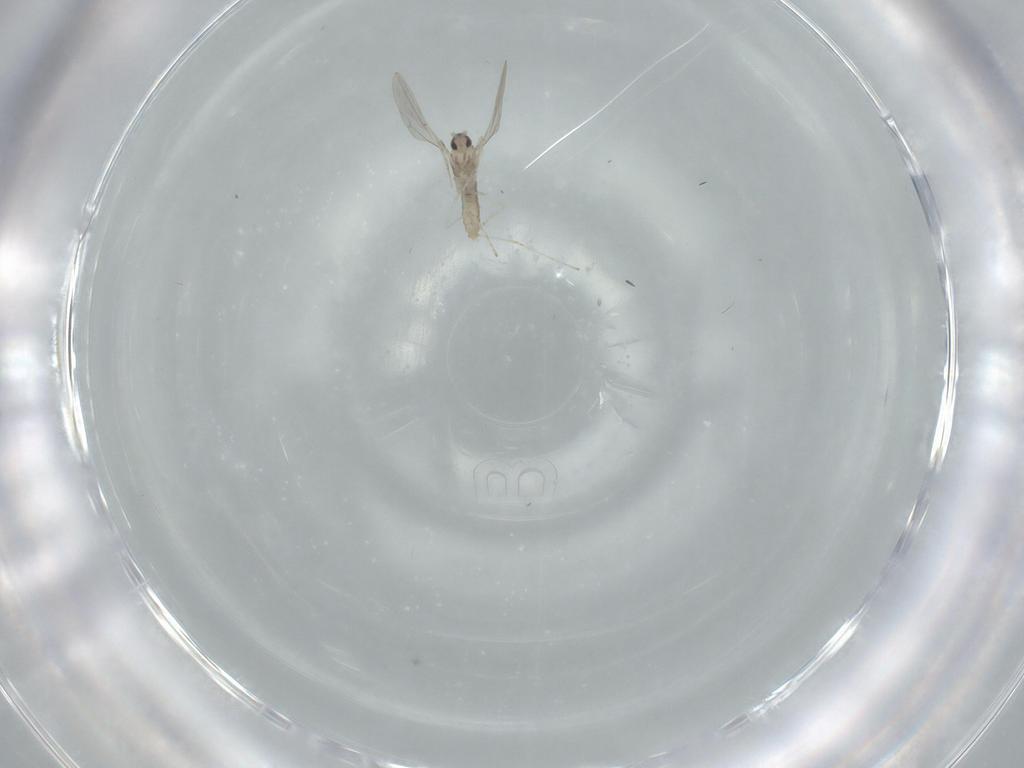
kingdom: Animalia
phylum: Arthropoda
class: Insecta
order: Diptera
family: Cecidomyiidae
